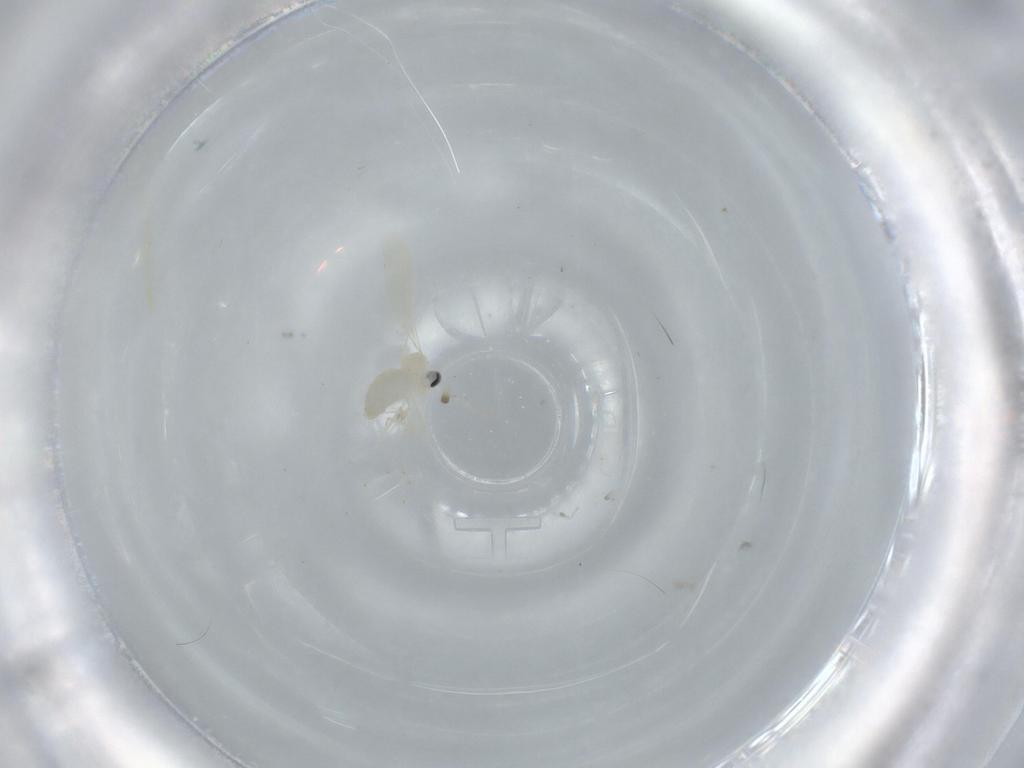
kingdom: Animalia
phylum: Arthropoda
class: Insecta
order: Diptera
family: Cecidomyiidae
